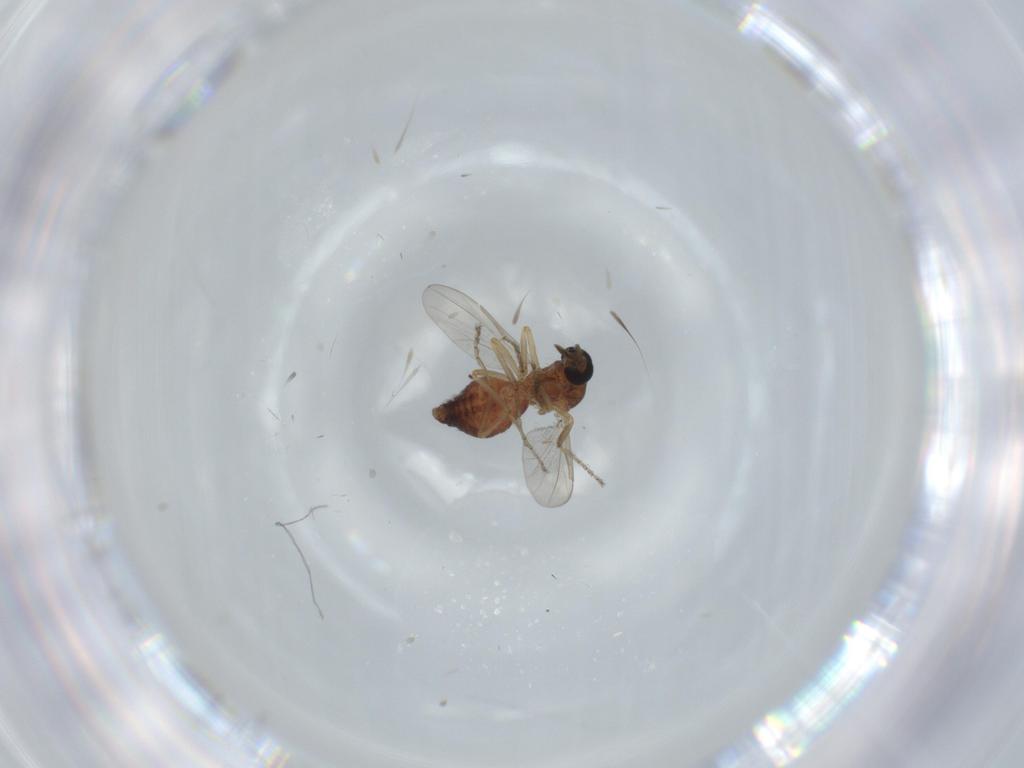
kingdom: Animalia
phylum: Arthropoda
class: Insecta
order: Diptera
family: Ceratopogonidae
